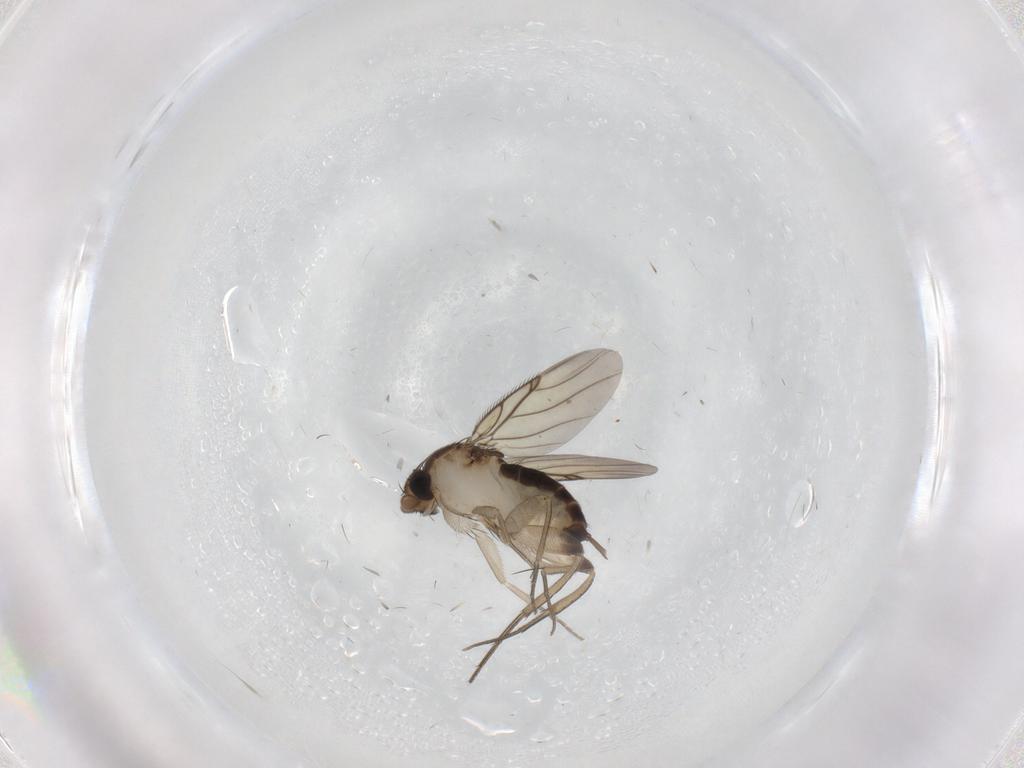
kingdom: Animalia
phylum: Arthropoda
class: Insecta
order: Diptera
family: Phoridae
